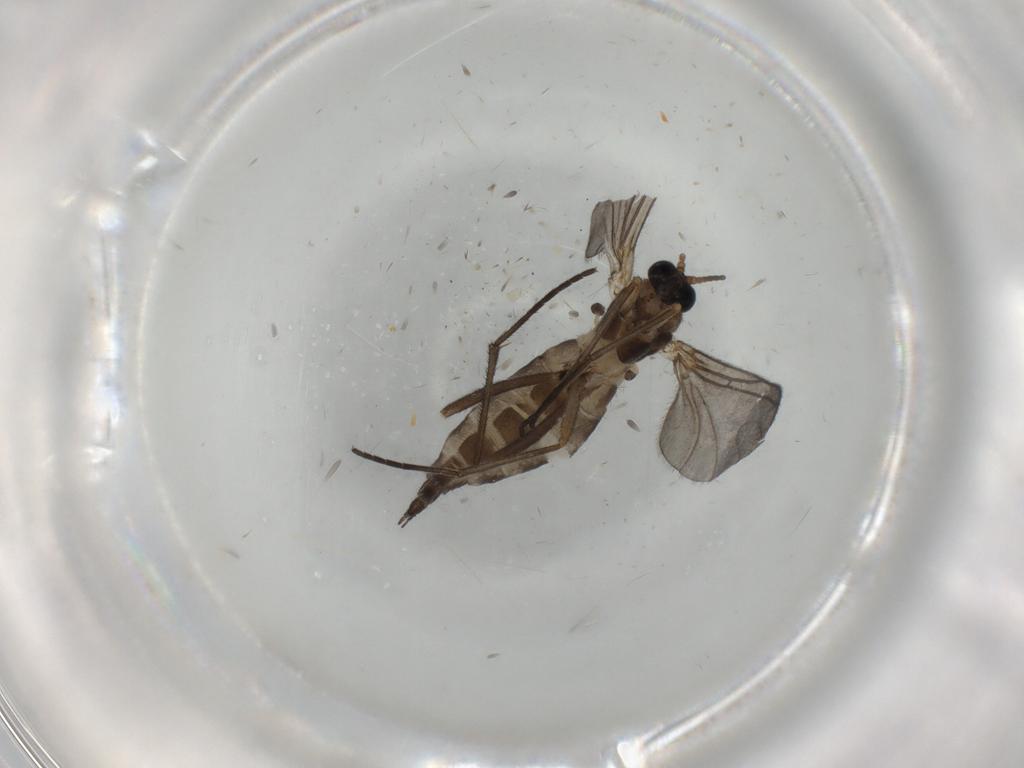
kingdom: Animalia
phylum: Arthropoda
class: Insecta
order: Diptera
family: Sciaridae
